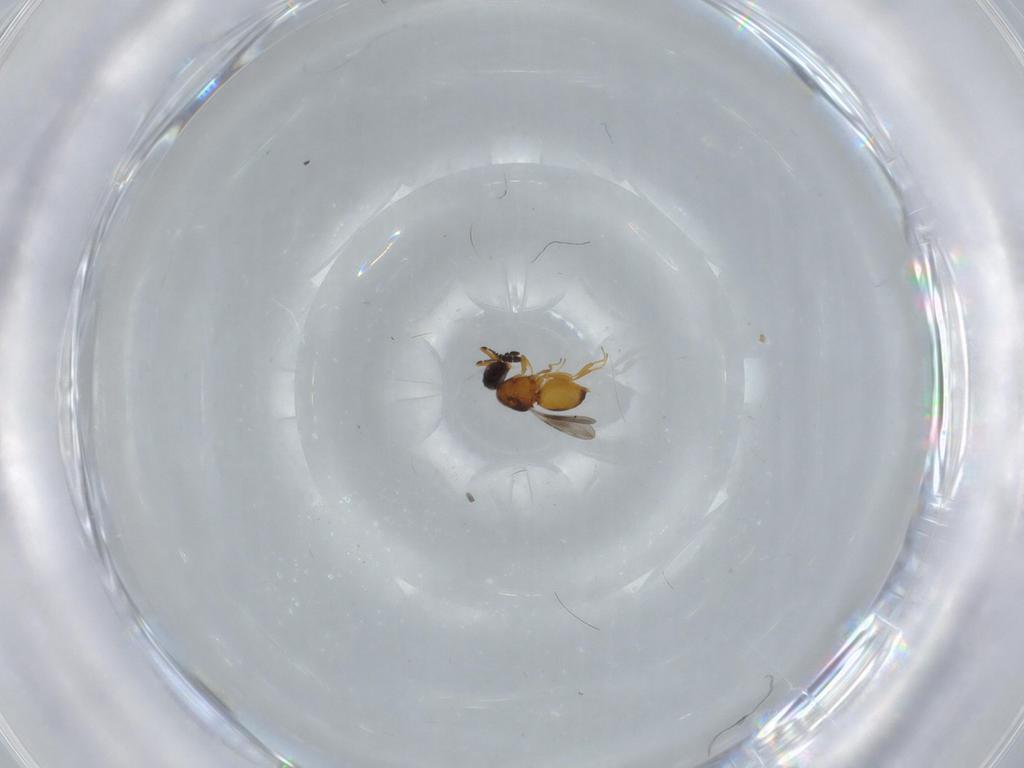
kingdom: Animalia
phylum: Arthropoda
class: Insecta
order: Hymenoptera
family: Ceraphronidae
